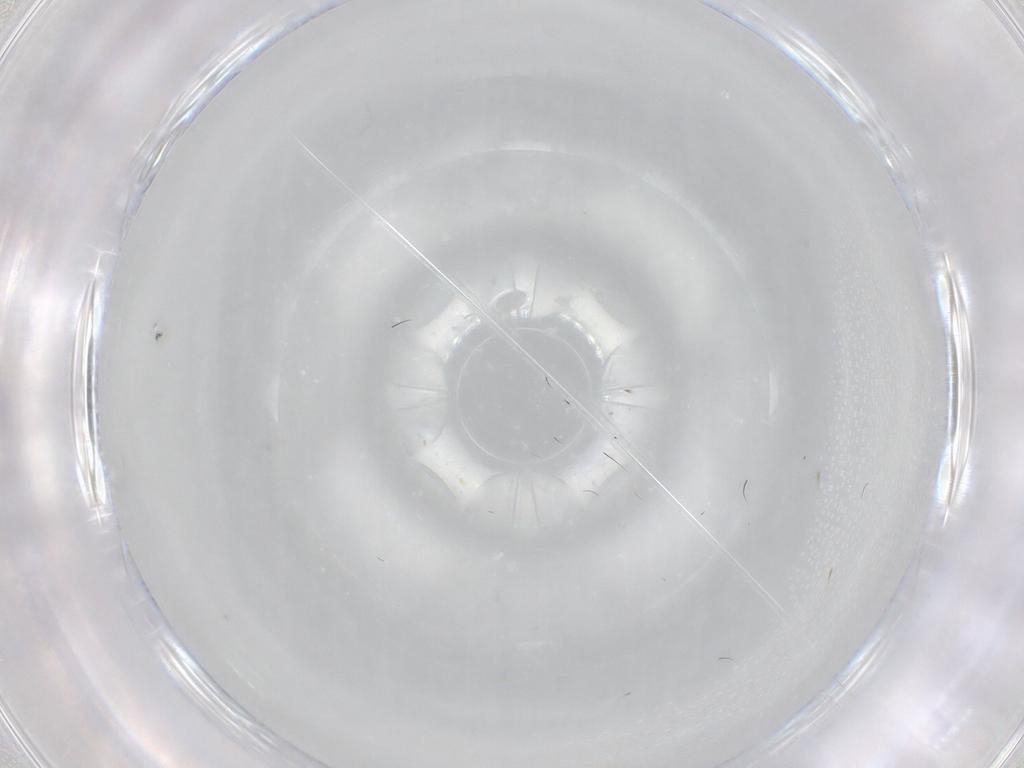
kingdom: Animalia
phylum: Arthropoda
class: Insecta
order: Diptera
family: Cecidomyiidae
